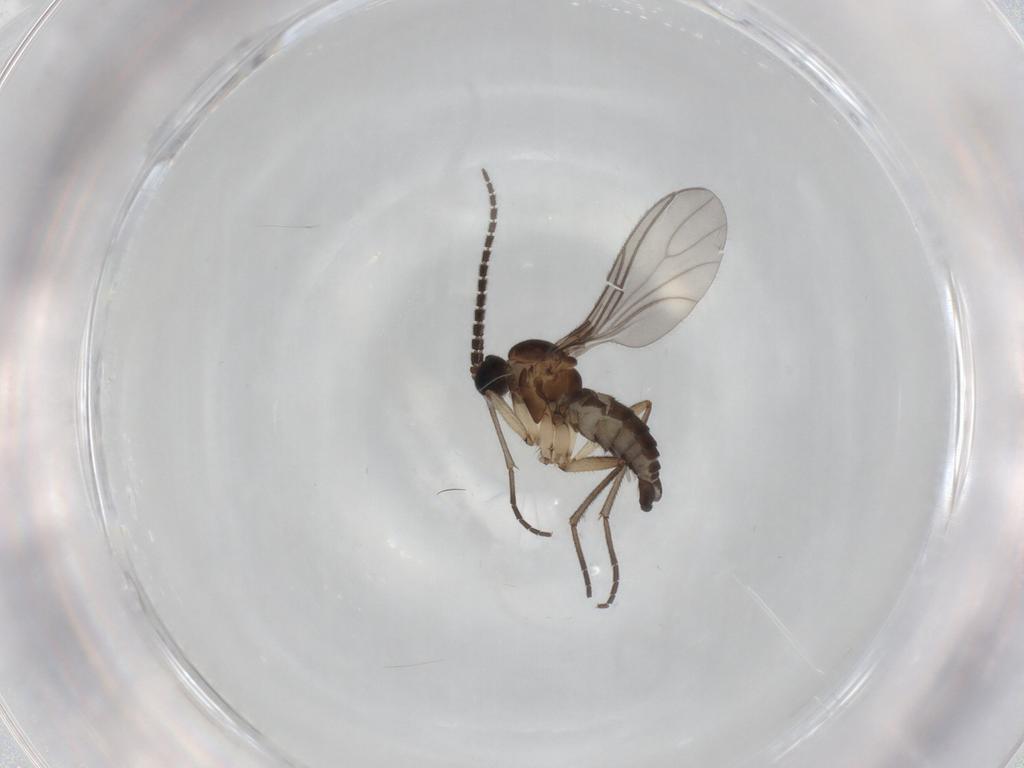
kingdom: Animalia
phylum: Arthropoda
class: Insecta
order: Diptera
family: Sciaridae
